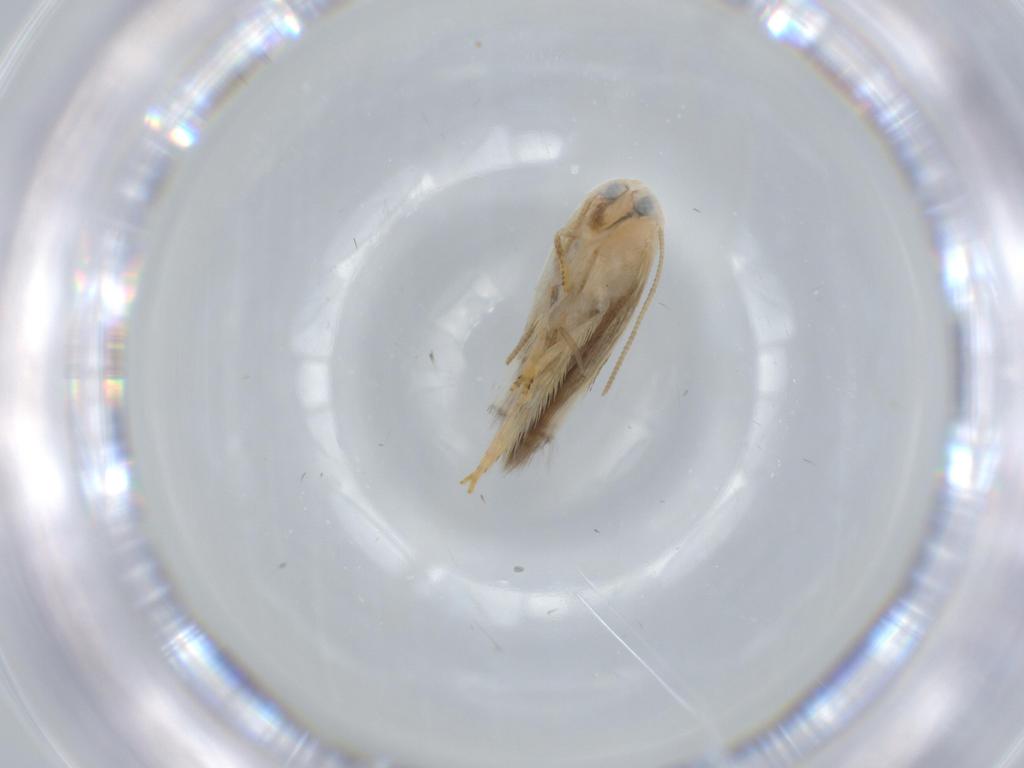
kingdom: Animalia
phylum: Arthropoda
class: Insecta
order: Lepidoptera
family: Opostegidae
